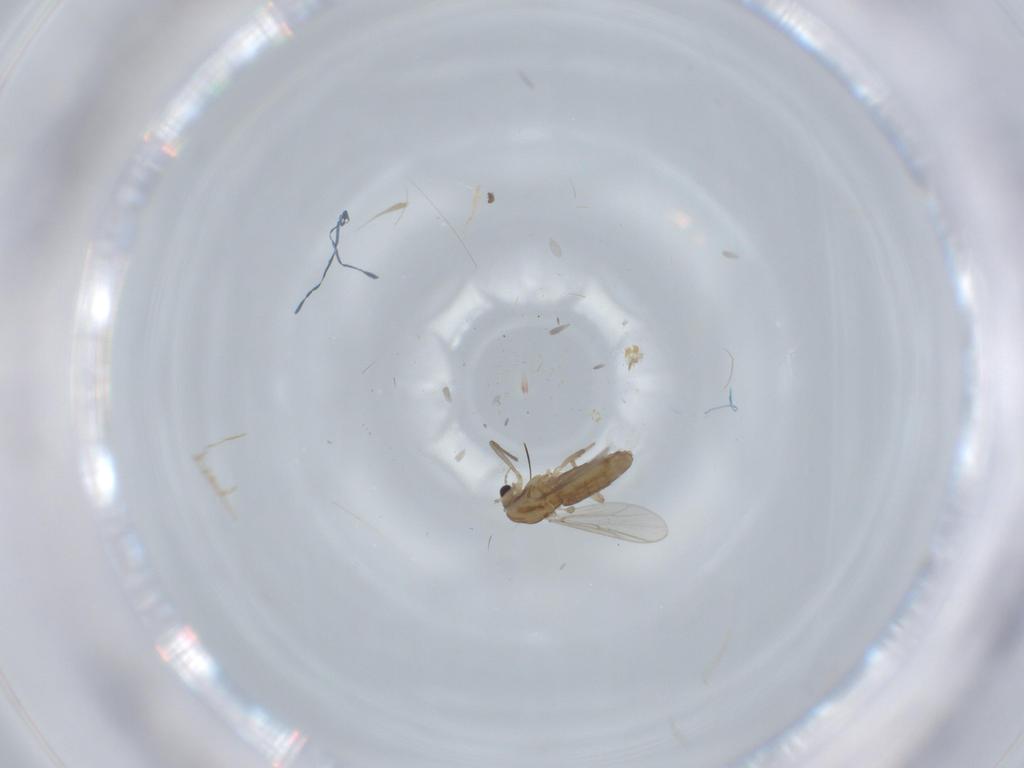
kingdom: Animalia
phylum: Arthropoda
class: Insecta
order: Diptera
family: Chironomidae
